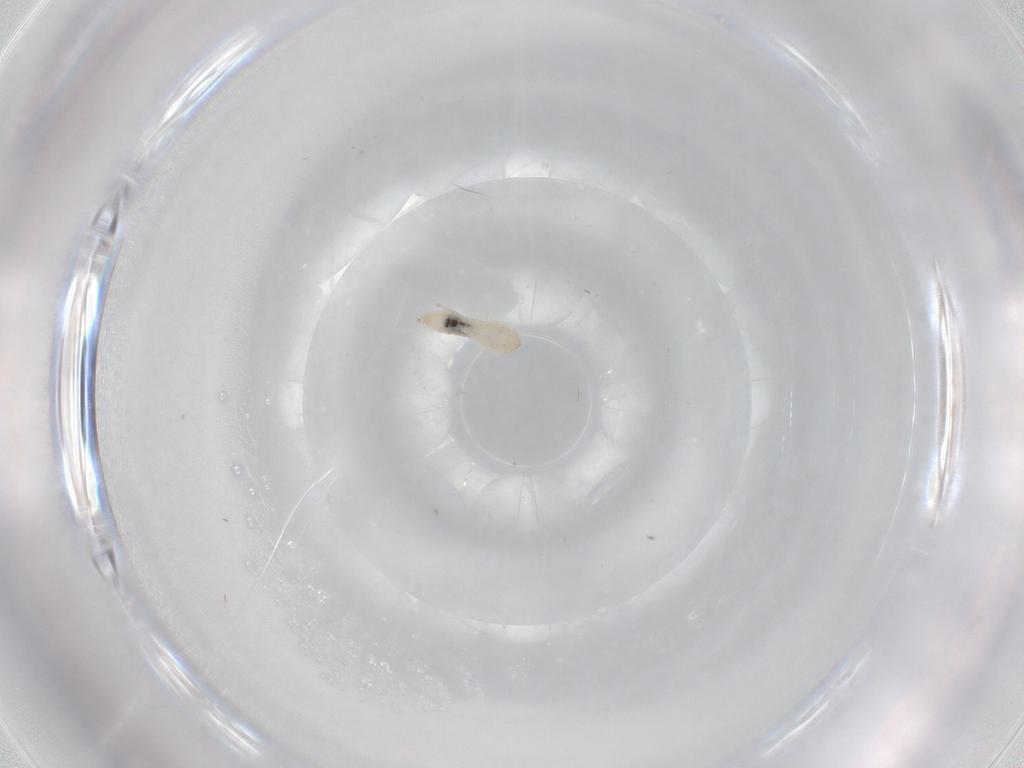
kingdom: Animalia
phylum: Arthropoda
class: Insecta
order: Diptera
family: Cecidomyiidae
